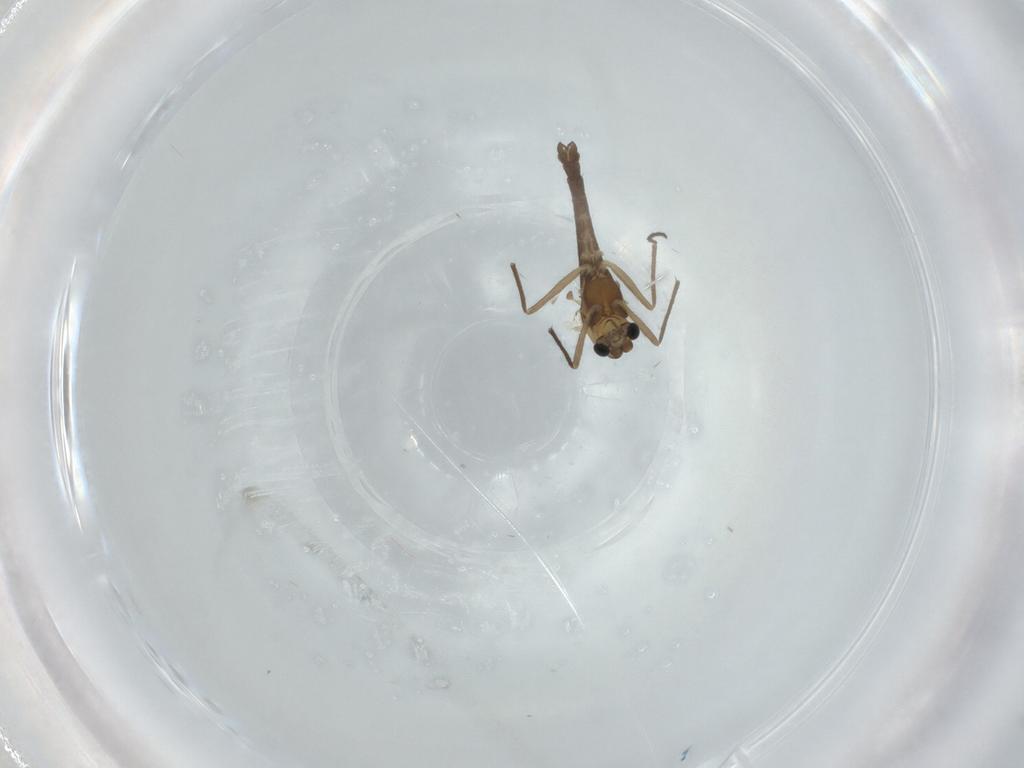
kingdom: Animalia
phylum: Arthropoda
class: Insecta
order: Diptera
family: Chironomidae
